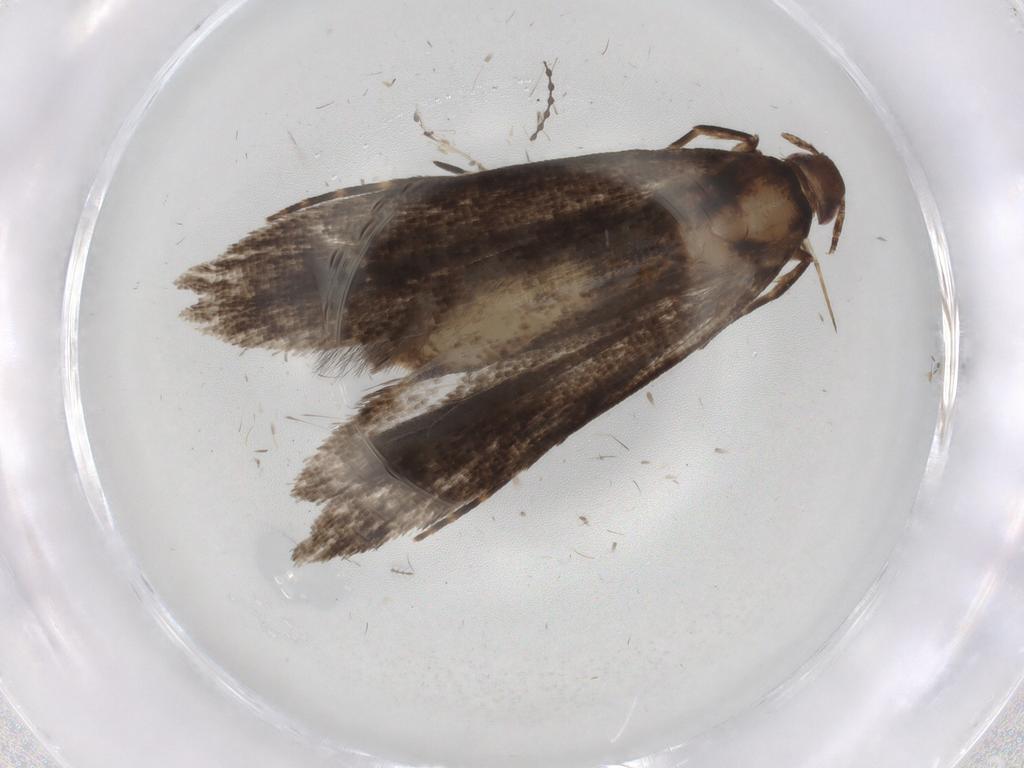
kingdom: Animalia
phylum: Arthropoda
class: Insecta
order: Lepidoptera
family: Gelechiidae
